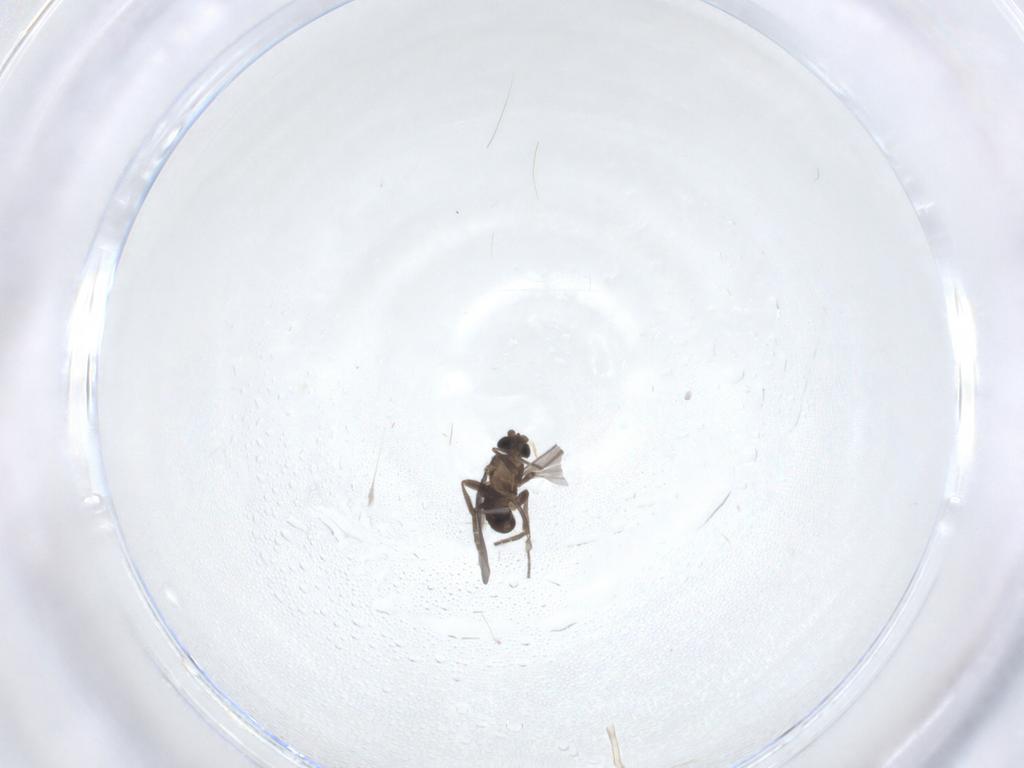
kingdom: Animalia
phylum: Arthropoda
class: Insecta
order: Diptera
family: Phoridae
